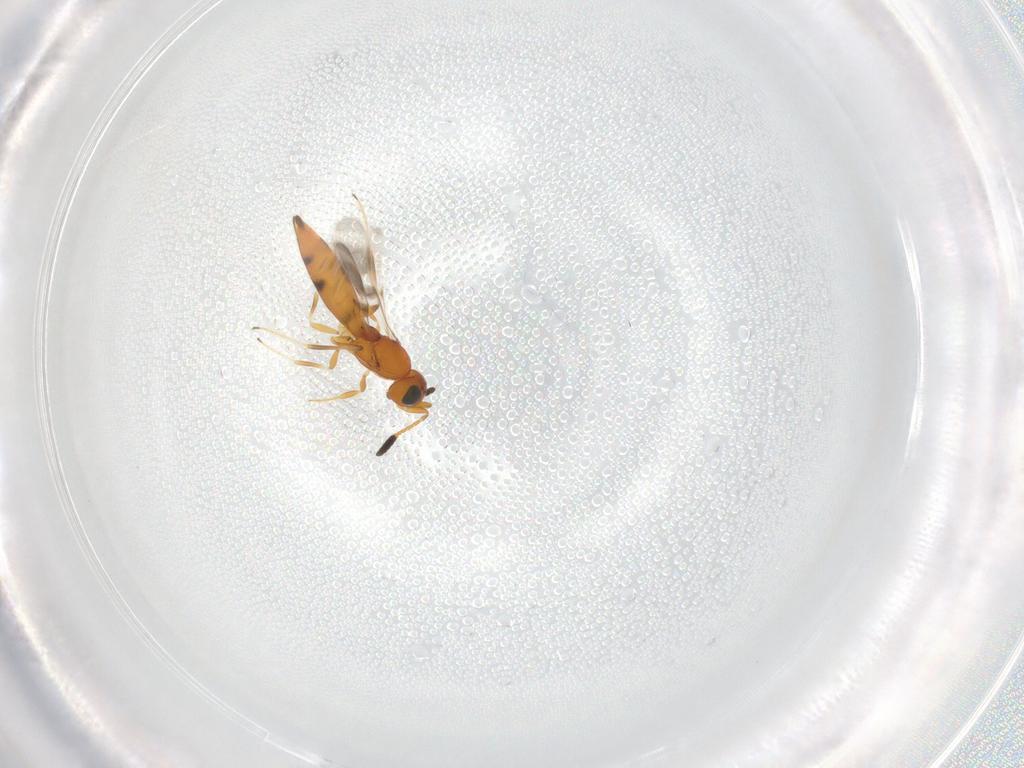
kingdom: Animalia
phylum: Arthropoda
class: Insecta
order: Hymenoptera
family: Scelionidae
